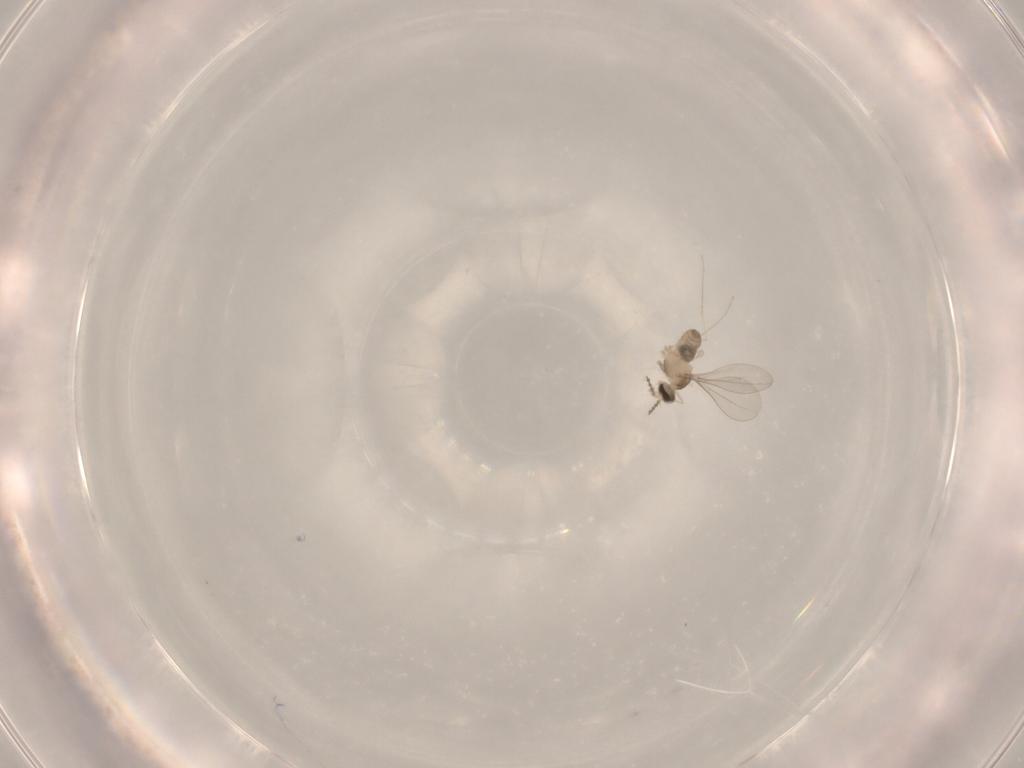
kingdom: Animalia
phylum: Arthropoda
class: Insecta
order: Diptera
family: Cecidomyiidae
